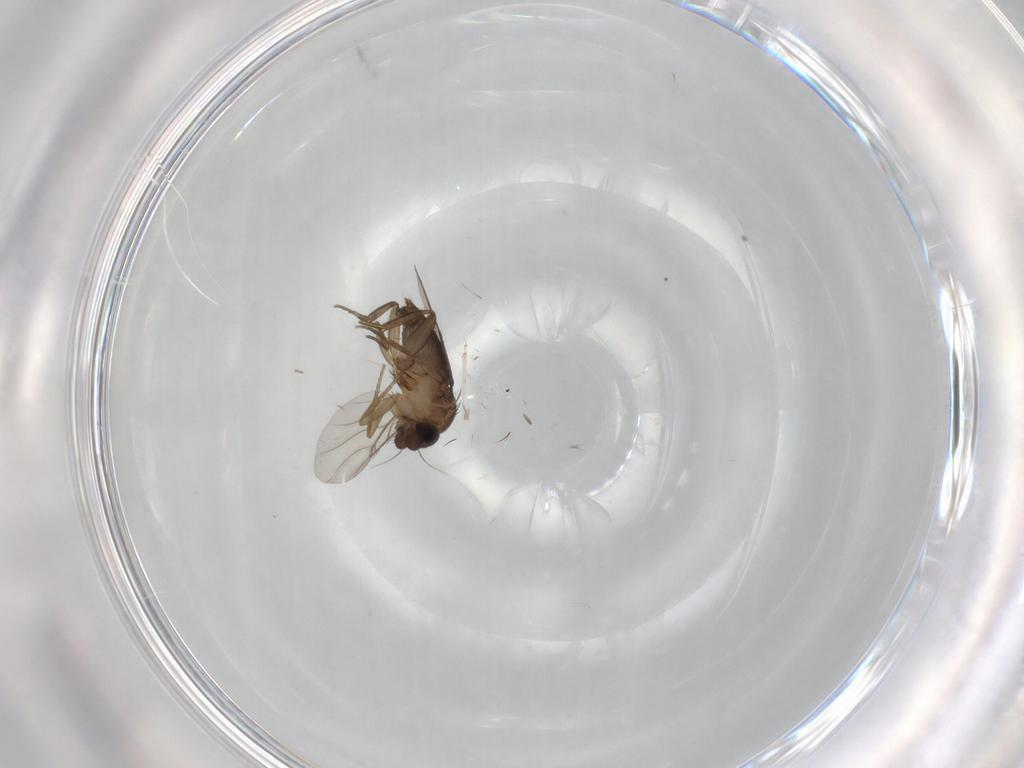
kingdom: Animalia
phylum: Arthropoda
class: Insecta
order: Diptera
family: Phoridae
